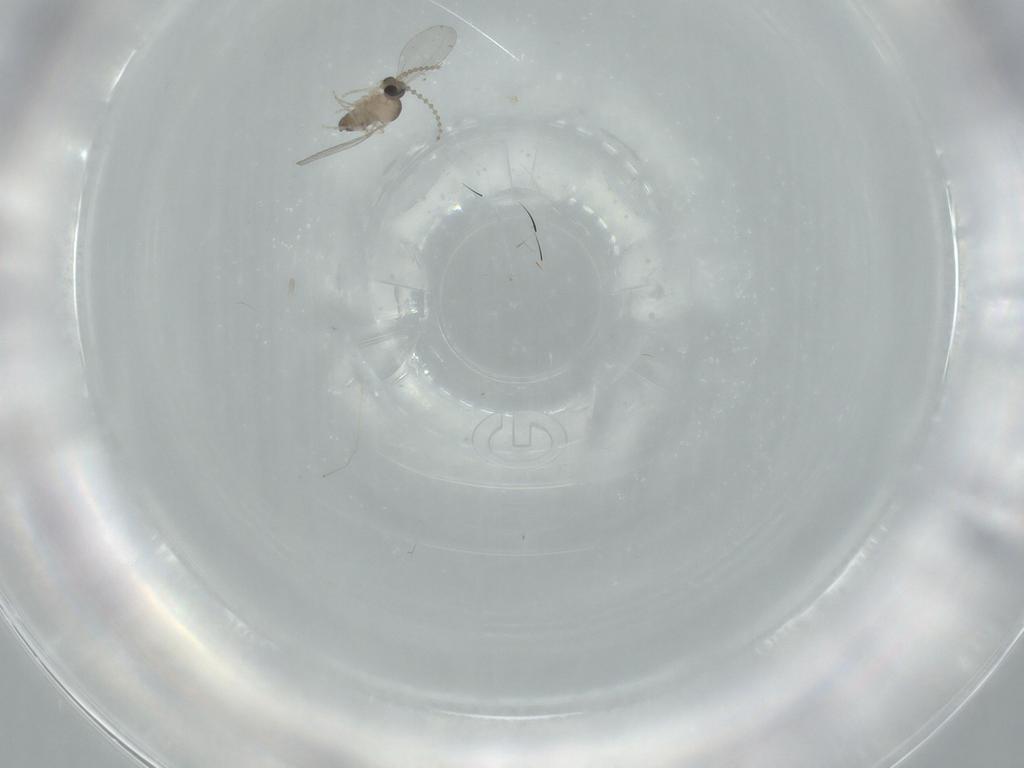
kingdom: Animalia
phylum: Arthropoda
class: Insecta
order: Diptera
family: Cecidomyiidae
